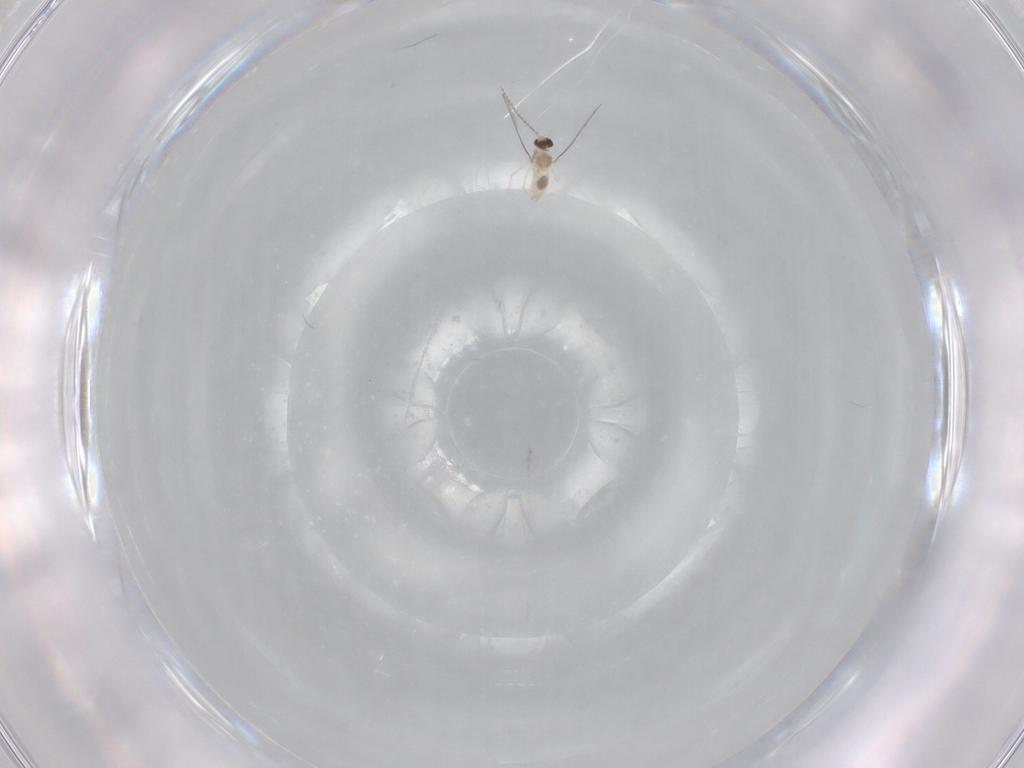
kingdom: Animalia
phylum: Arthropoda
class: Insecta
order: Diptera
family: Cecidomyiidae
